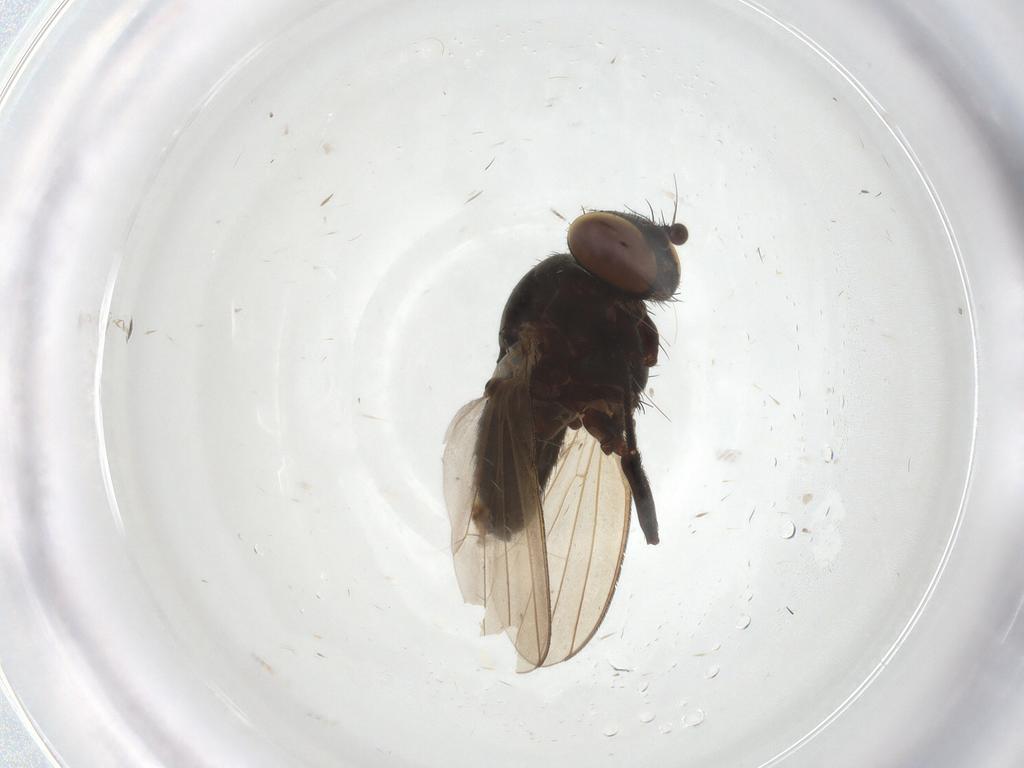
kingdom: Animalia
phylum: Arthropoda
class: Insecta
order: Diptera
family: Milichiidae
